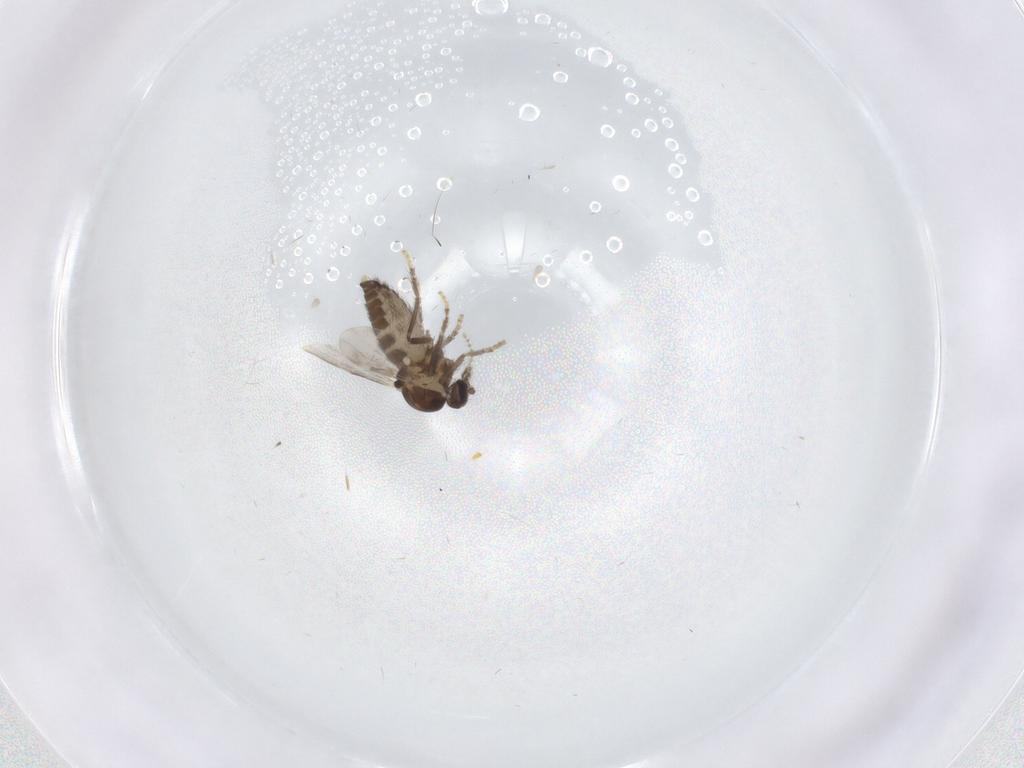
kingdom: Animalia
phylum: Arthropoda
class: Insecta
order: Diptera
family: Ceratopogonidae
